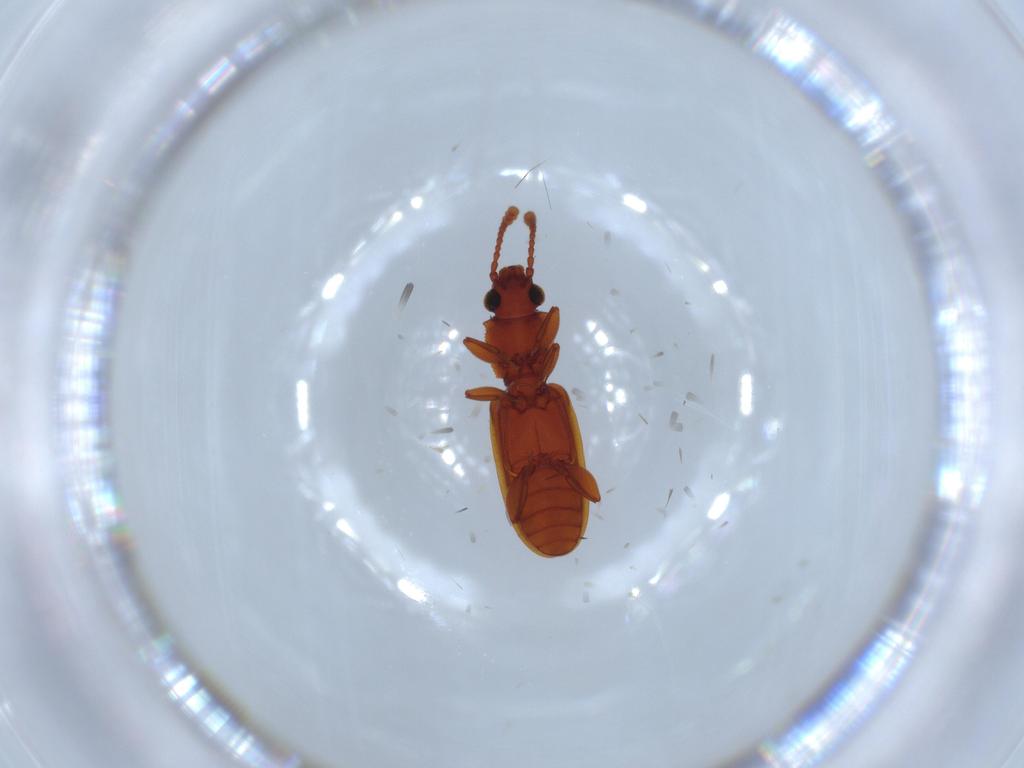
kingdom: Animalia
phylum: Arthropoda
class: Insecta
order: Coleoptera
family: Silvanidae
